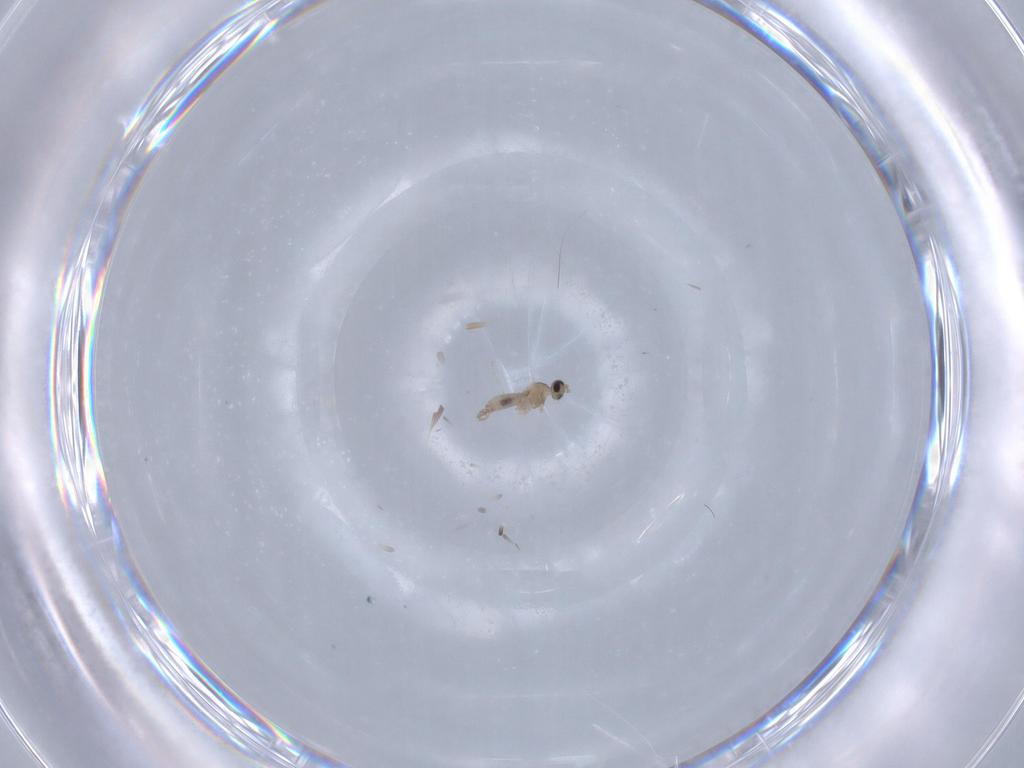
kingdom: Animalia
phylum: Arthropoda
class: Insecta
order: Diptera
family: Cecidomyiidae
